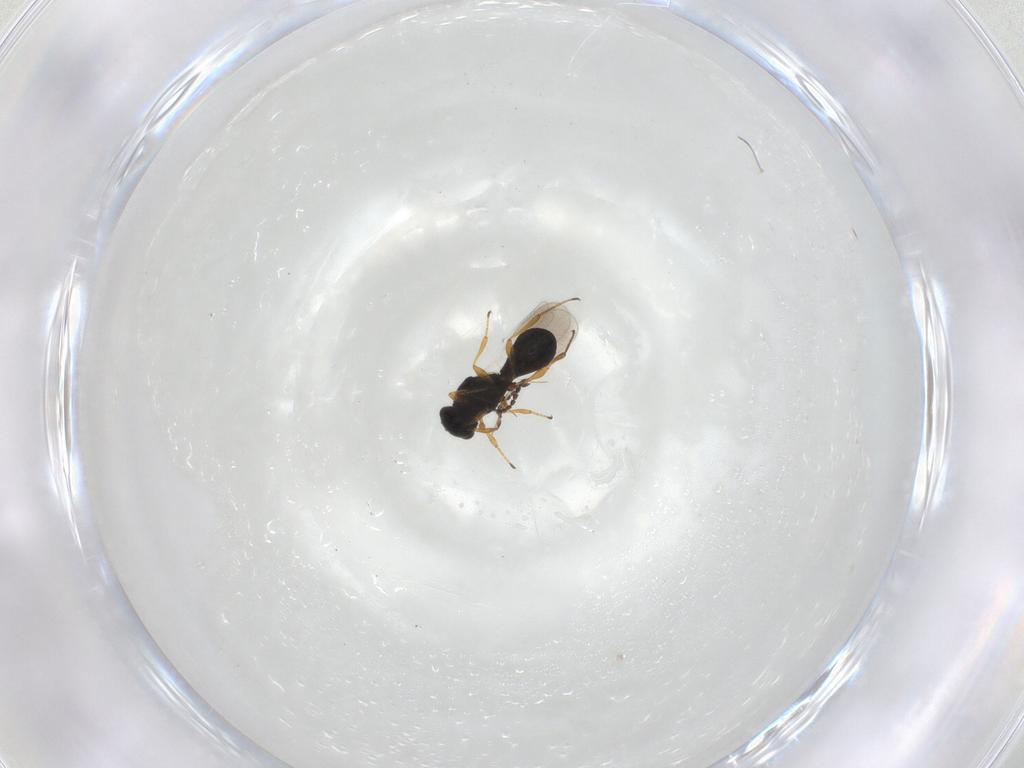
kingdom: Animalia
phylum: Arthropoda
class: Insecta
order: Hymenoptera
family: Platygastridae
